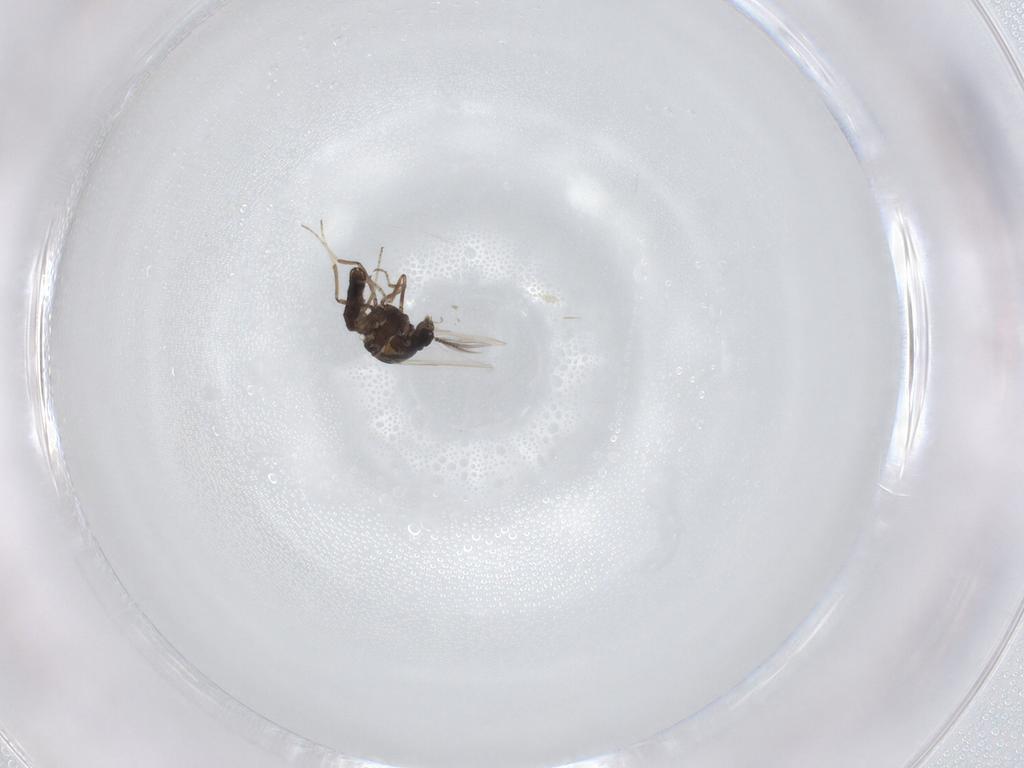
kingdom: Animalia
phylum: Arthropoda
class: Insecta
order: Diptera
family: Ceratopogonidae
